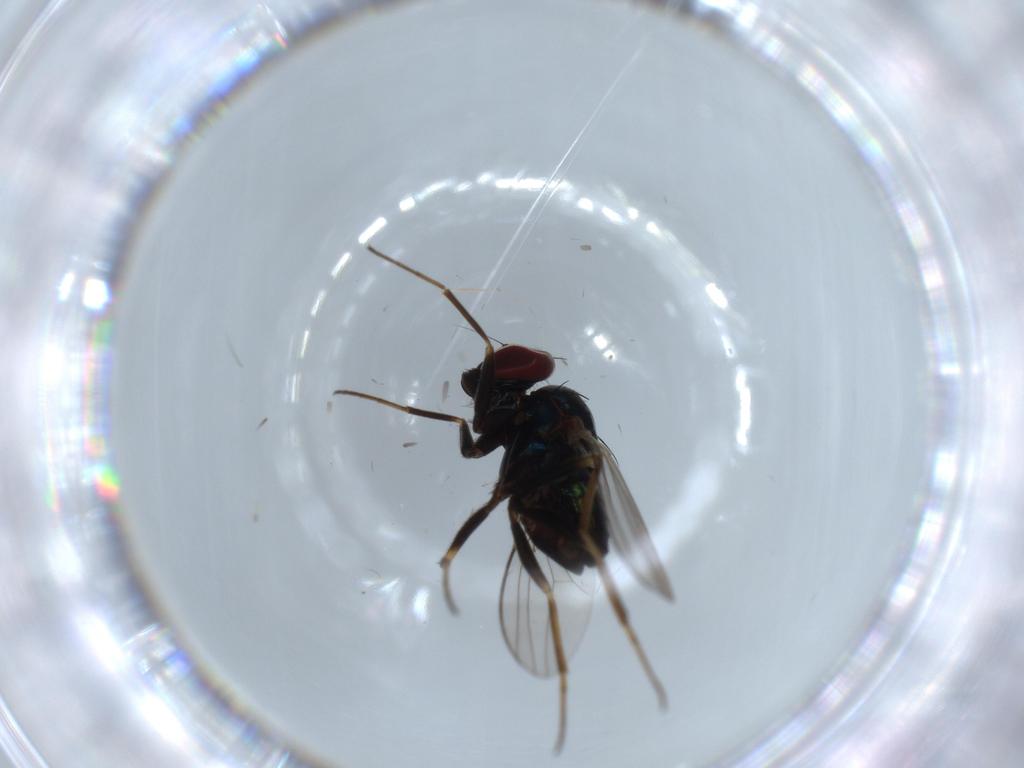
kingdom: Animalia
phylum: Arthropoda
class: Insecta
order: Diptera
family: Dolichopodidae
